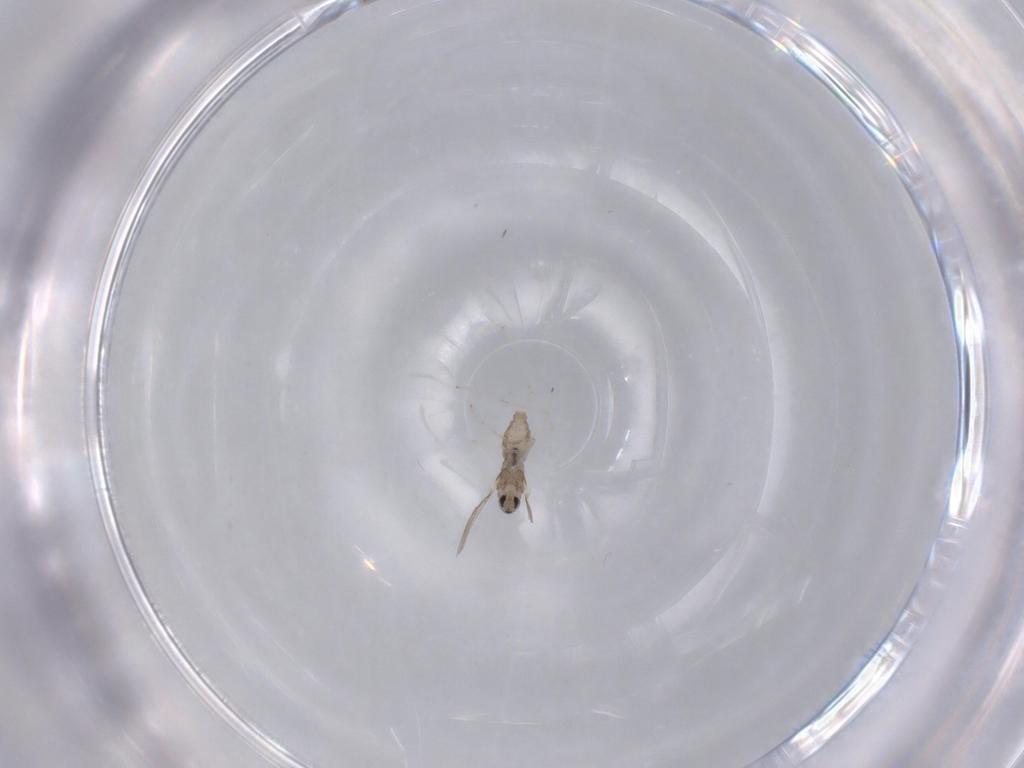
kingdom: Animalia
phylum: Arthropoda
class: Insecta
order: Diptera
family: Cecidomyiidae
